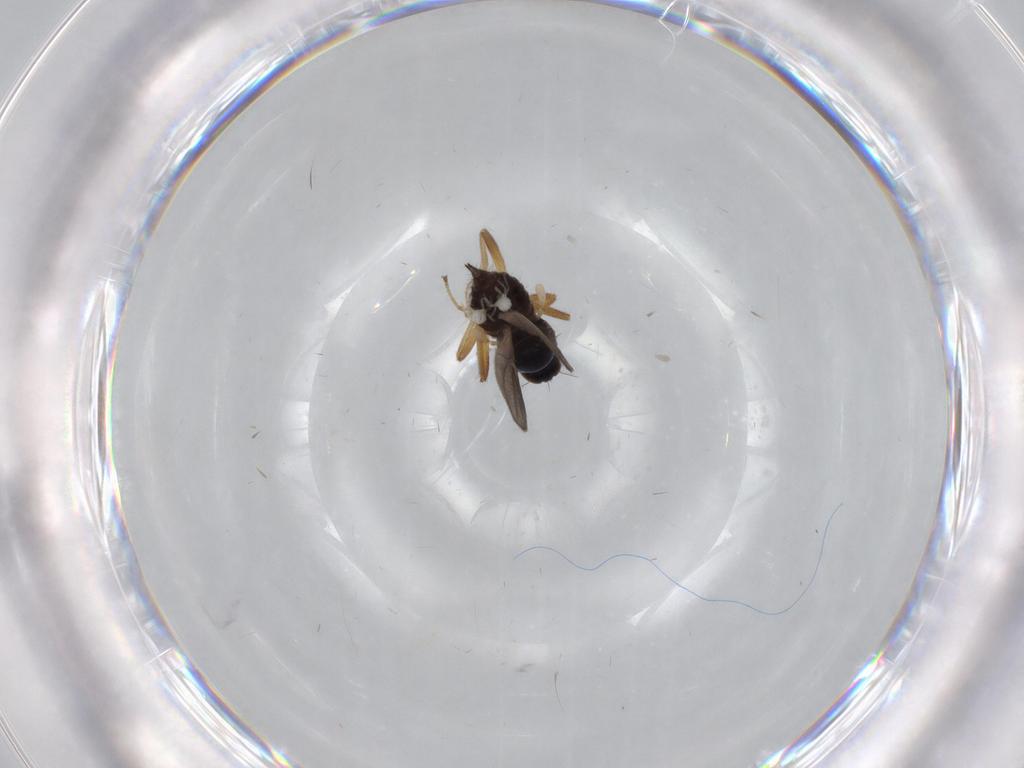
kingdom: Animalia
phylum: Arthropoda
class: Insecta
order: Diptera
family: Hybotidae
